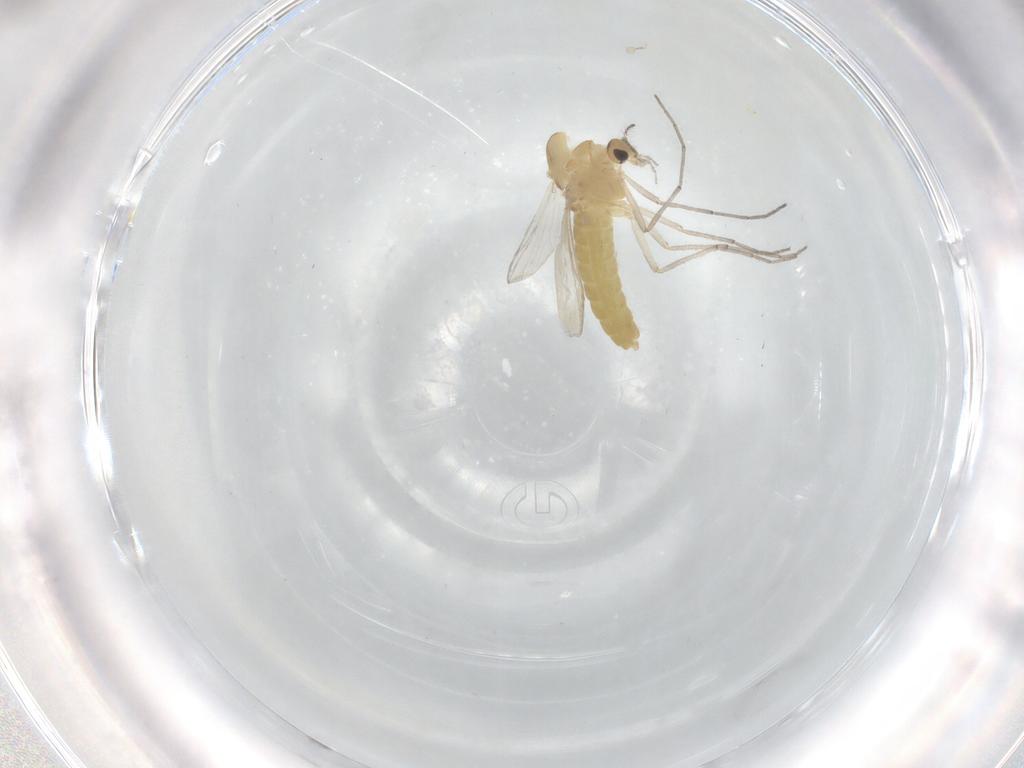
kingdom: Animalia
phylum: Arthropoda
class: Insecta
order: Diptera
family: Chironomidae
